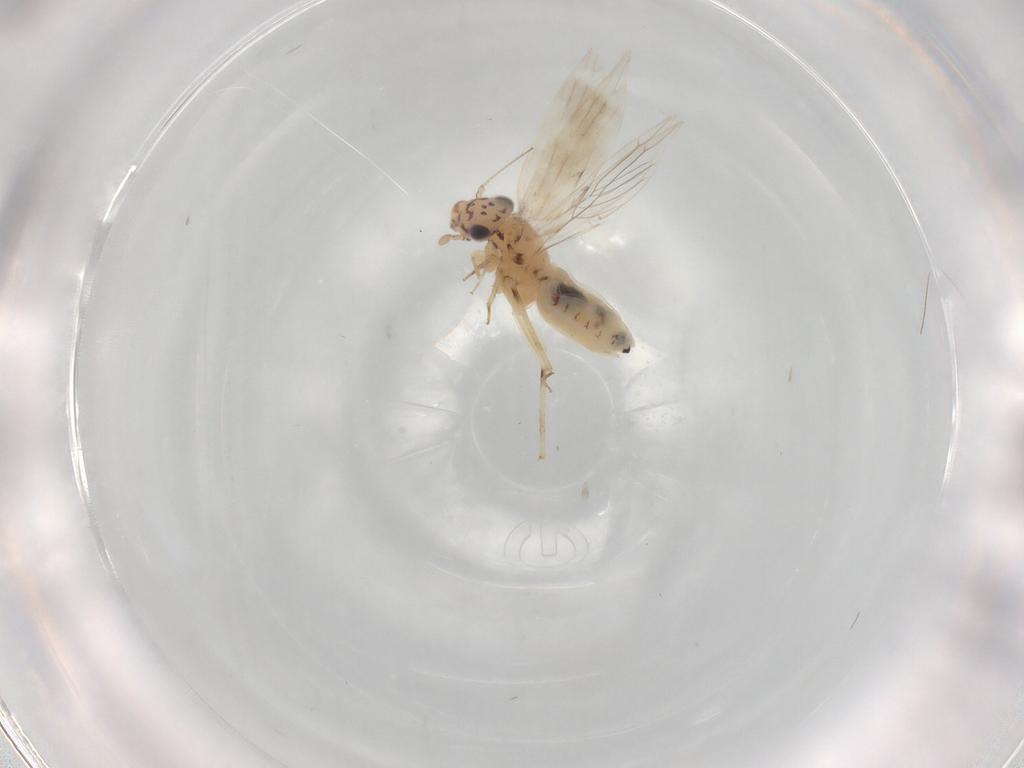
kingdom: Animalia
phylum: Arthropoda
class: Insecta
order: Psocodea
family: Lepidopsocidae
